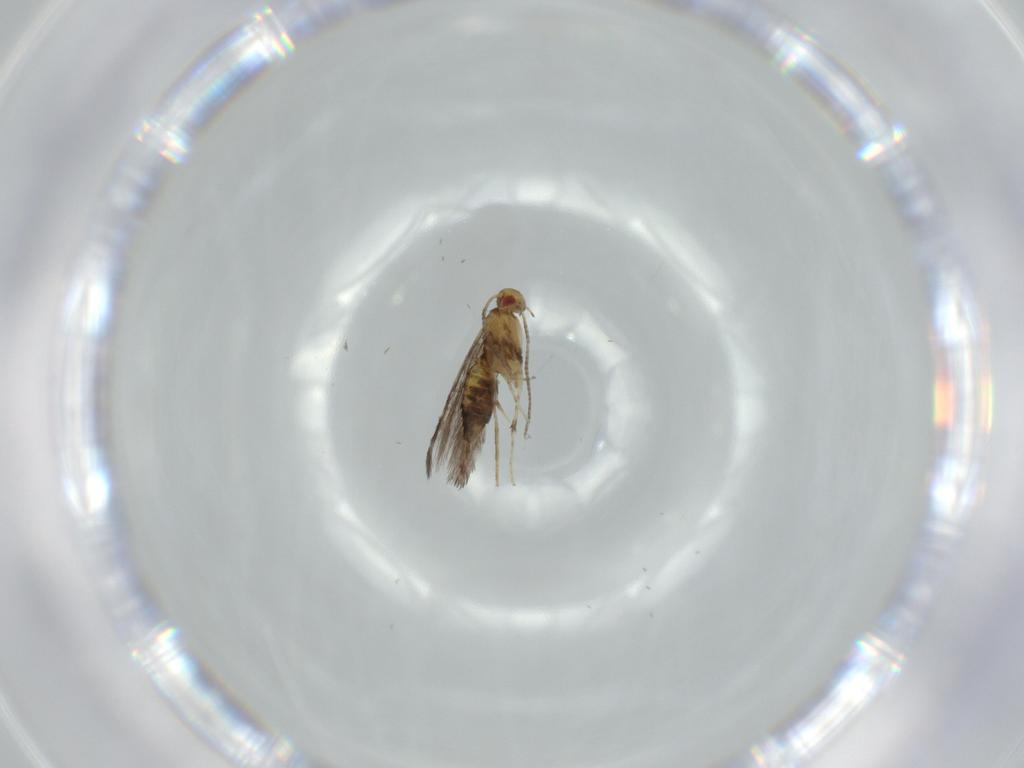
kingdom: Animalia
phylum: Arthropoda
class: Insecta
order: Lepidoptera
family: Gracillariidae
